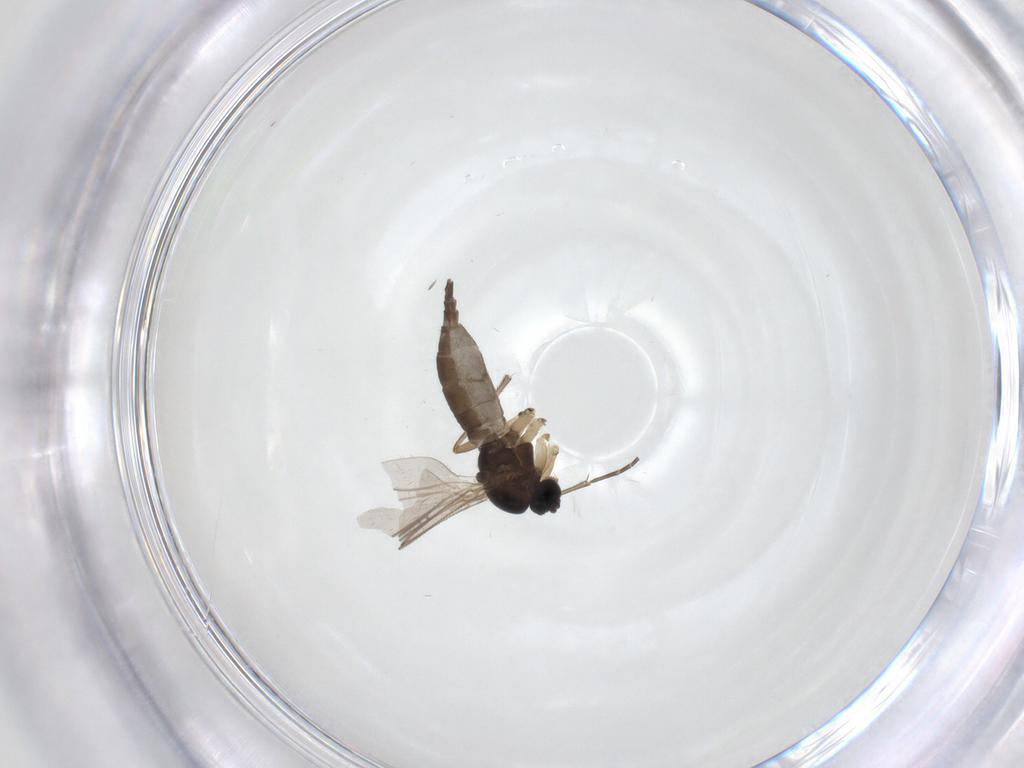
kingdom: Animalia
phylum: Arthropoda
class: Insecta
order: Diptera
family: Sciaridae
